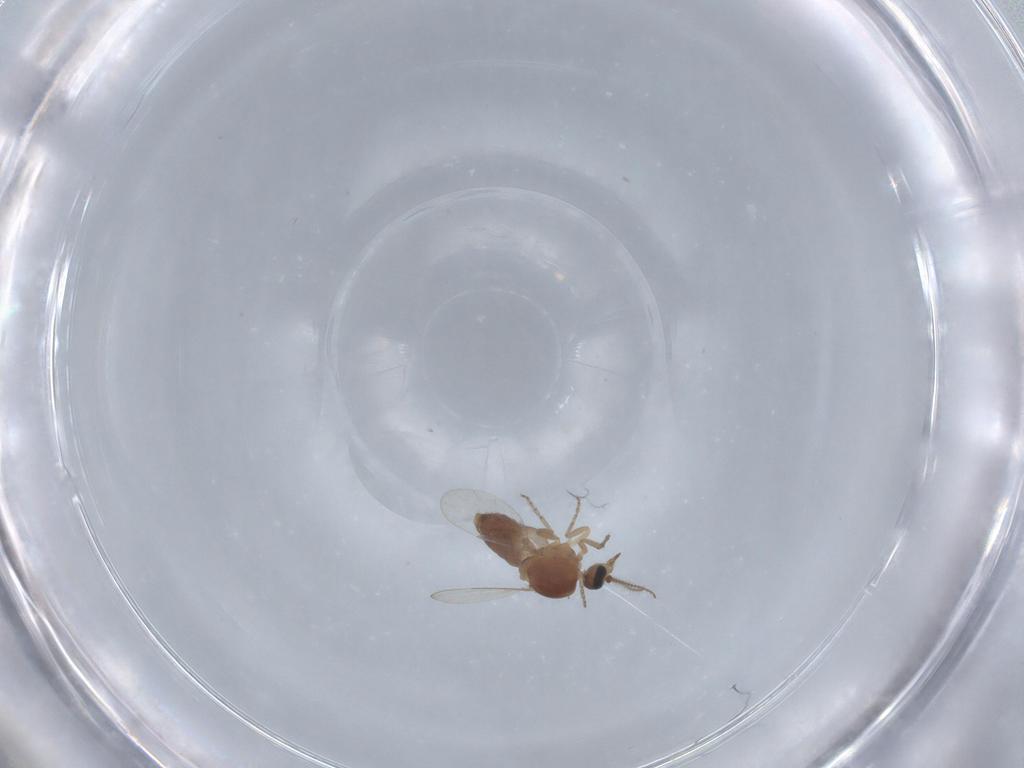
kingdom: Animalia
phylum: Arthropoda
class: Insecta
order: Diptera
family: Ceratopogonidae
